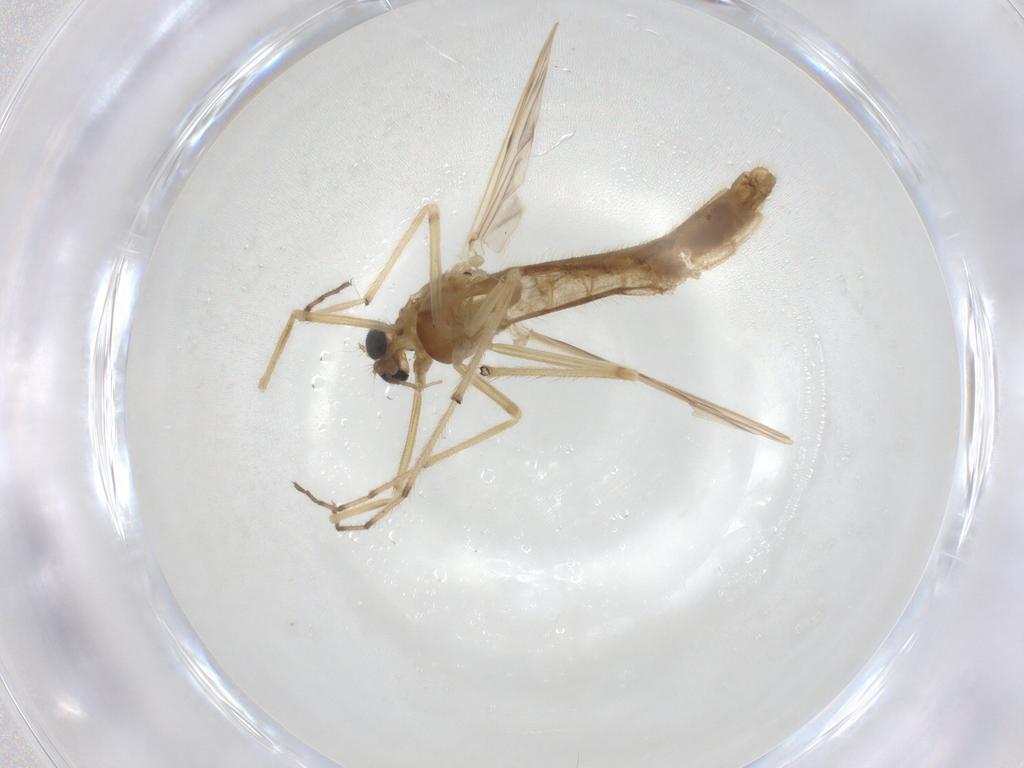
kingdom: Animalia
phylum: Arthropoda
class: Insecta
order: Diptera
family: Chironomidae
